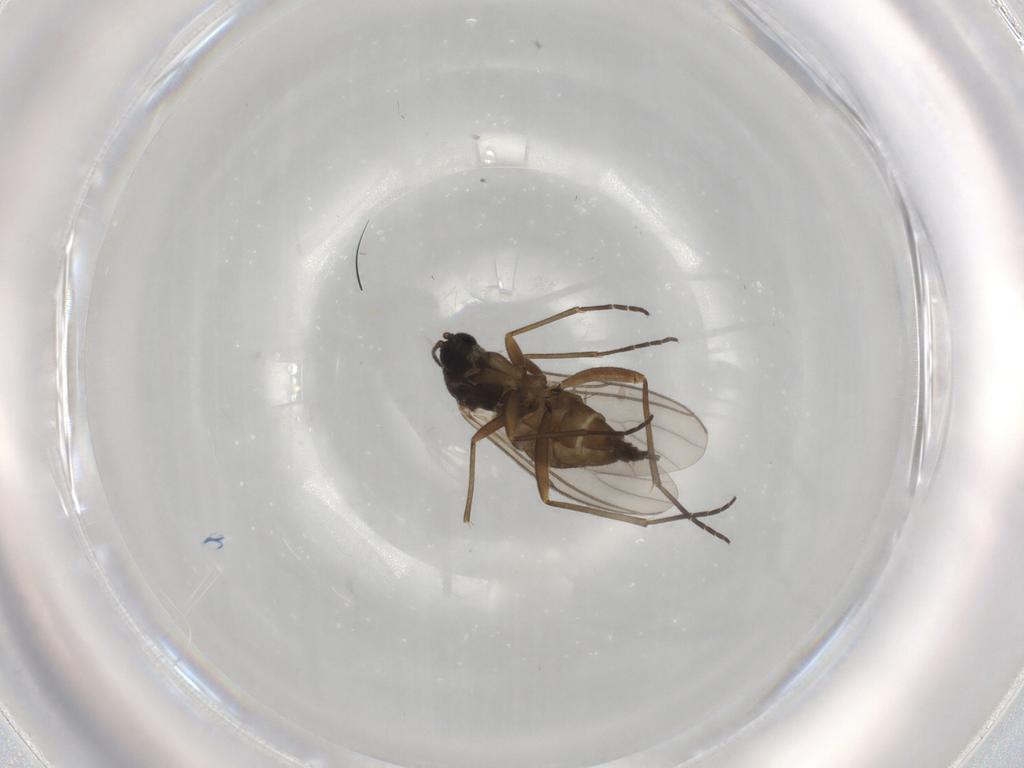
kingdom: Animalia
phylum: Arthropoda
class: Insecta
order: Diptera
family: Sciaridae
